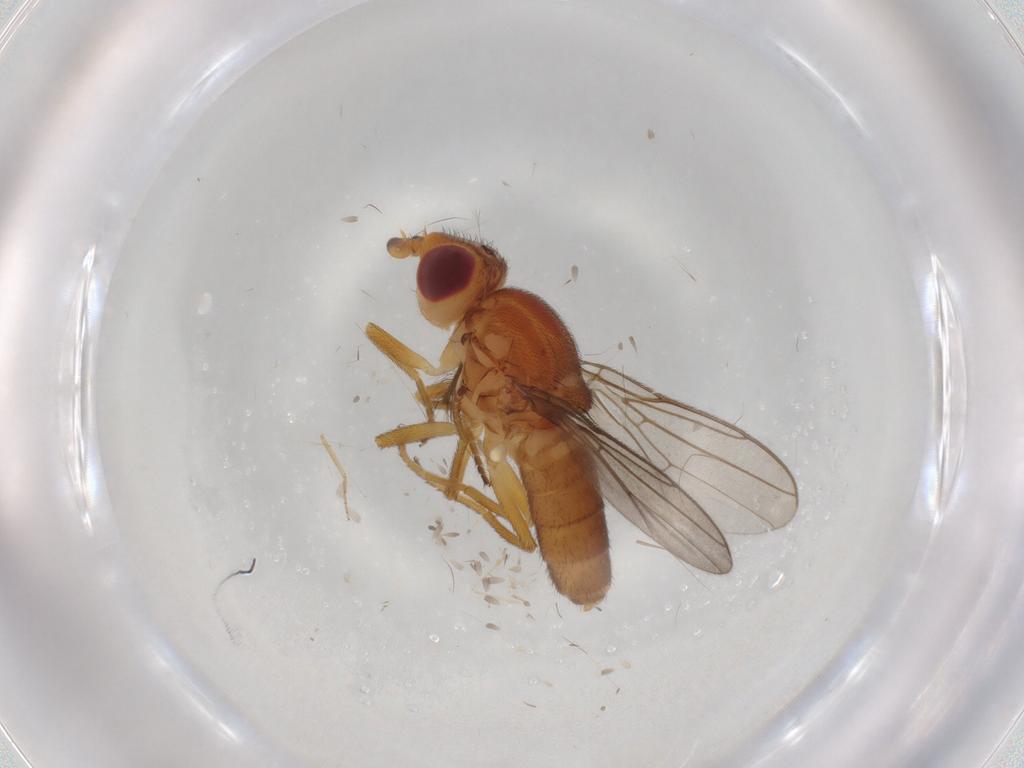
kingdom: Animalia
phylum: Arthropoda
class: Insecta
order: Diptera
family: Chloropidae
